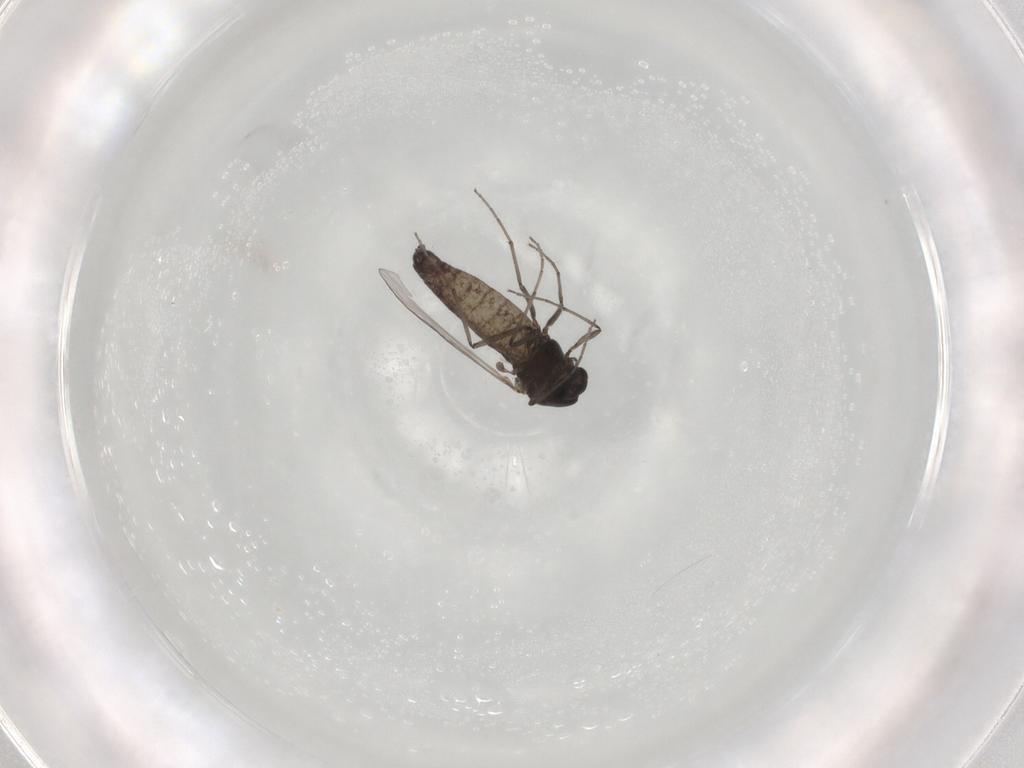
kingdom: Animalia
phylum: Arthropoda
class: Insecta
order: Diptera
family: Chironomidae
